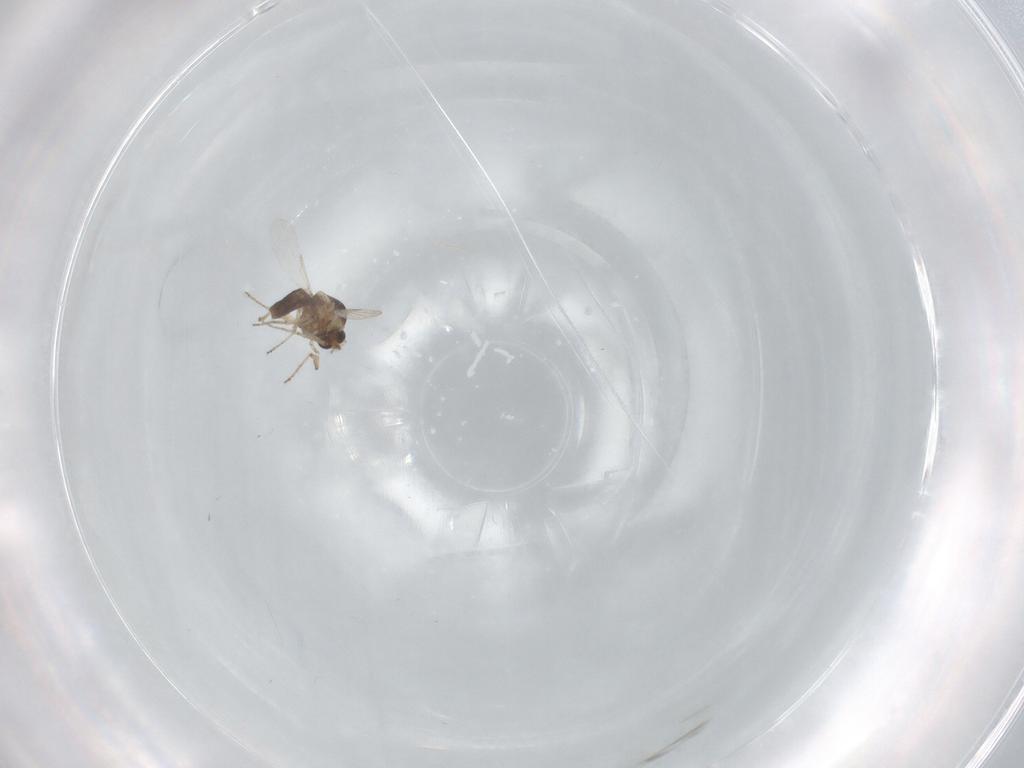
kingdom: Animalia
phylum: Arthropoda
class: Insecta
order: Diptera
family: Ceratopogonidae
